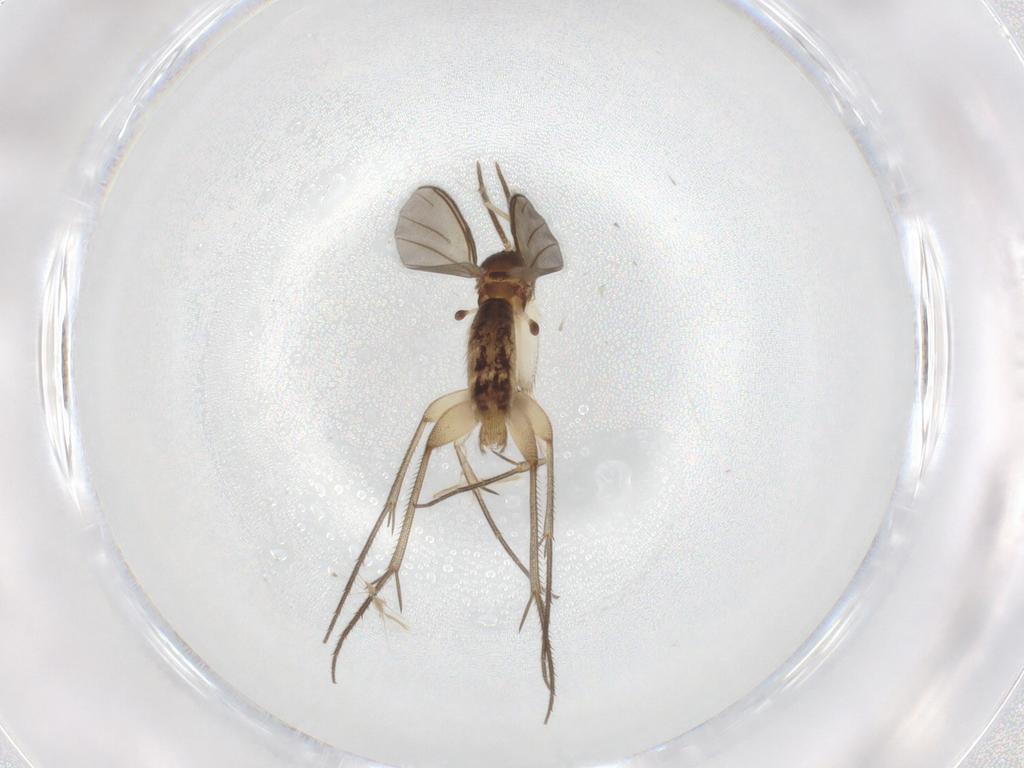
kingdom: Animalia
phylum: Arthropoda
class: Insecta
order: Diptera
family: Mycetophilidae
